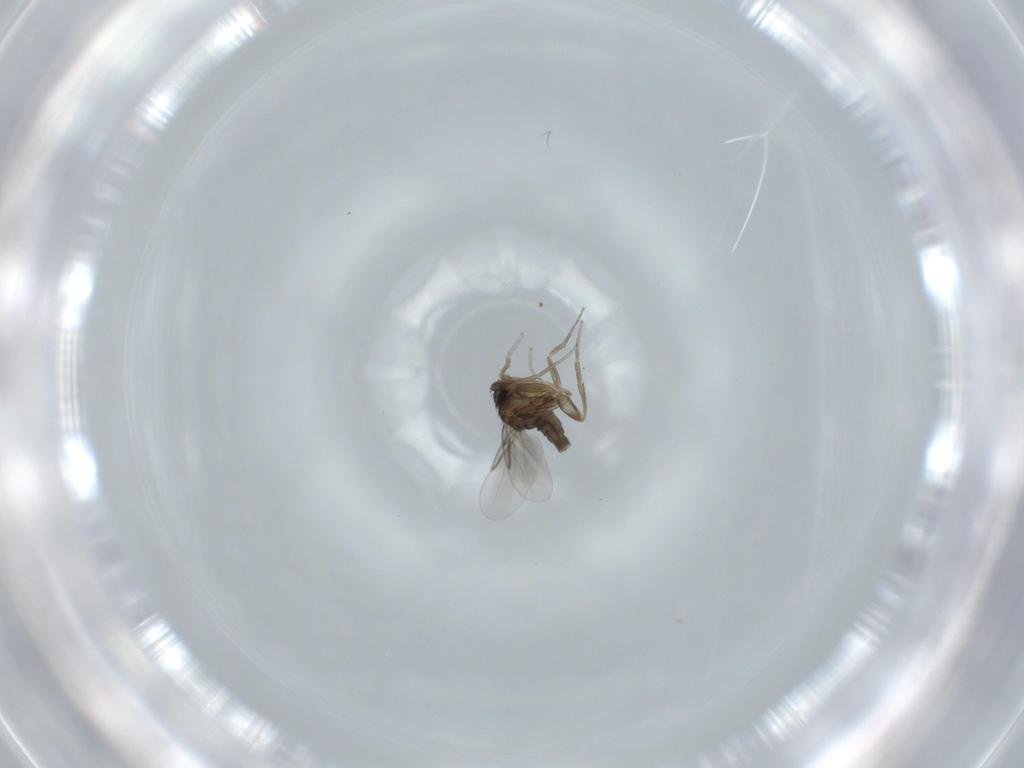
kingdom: Animalia
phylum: Arthropoda
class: Insecta
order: Diptera
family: Phoridae
